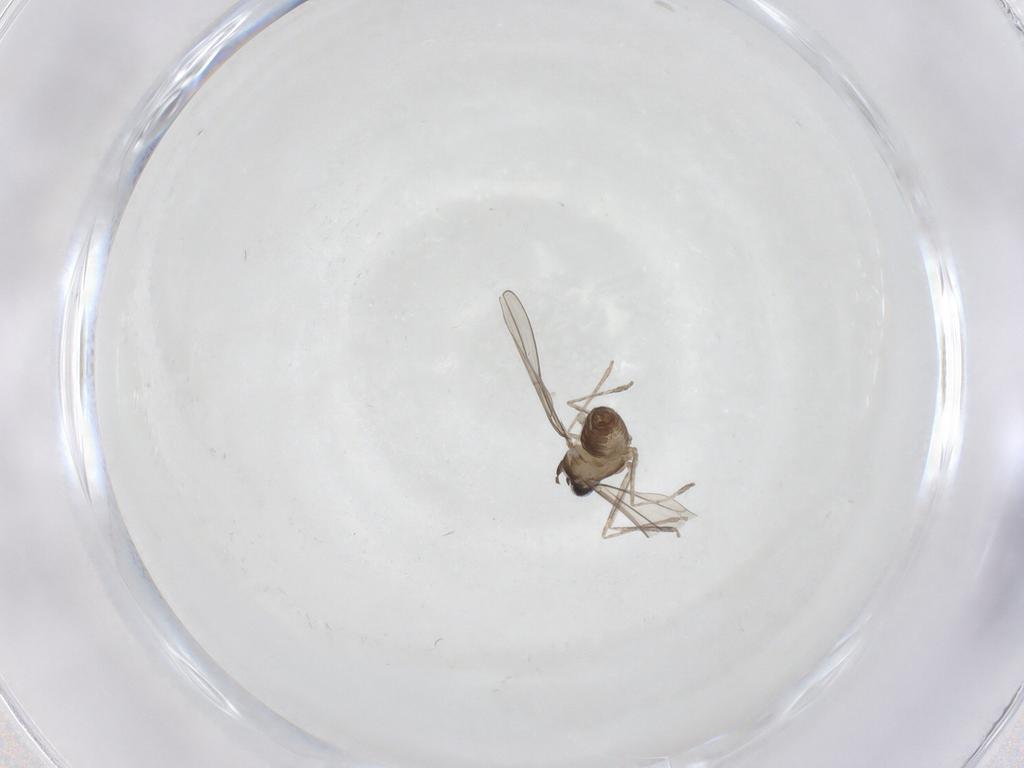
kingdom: Animalia
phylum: Arthropoda
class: Insecta
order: Diptera
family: Cecidomyiidae
